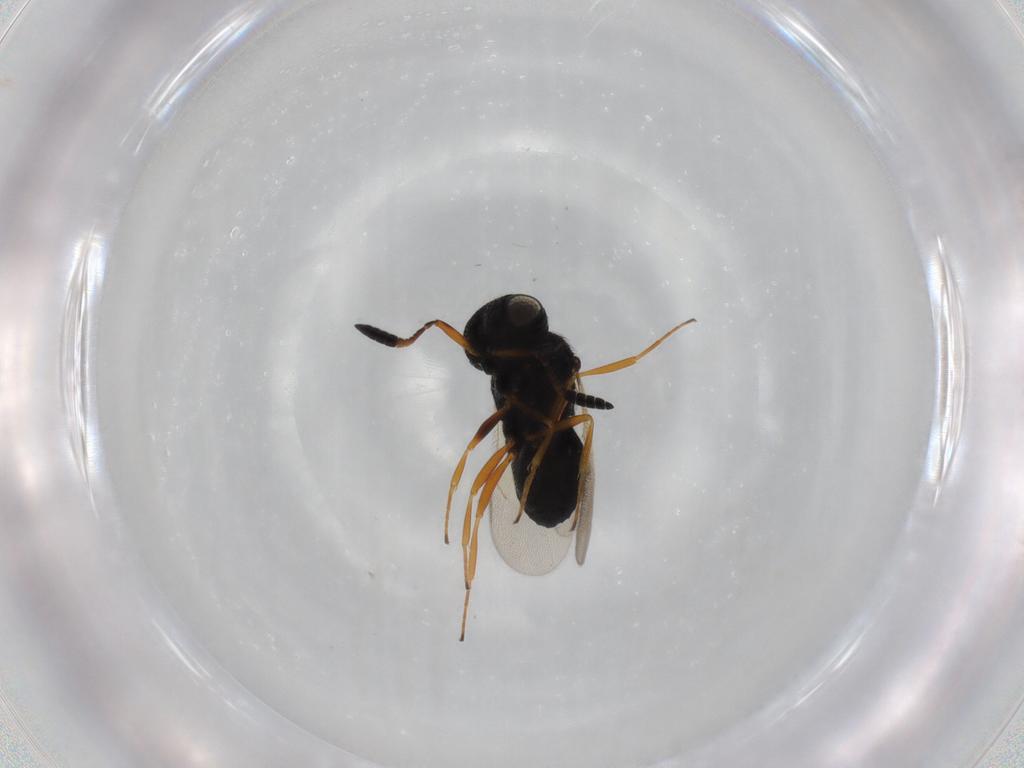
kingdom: Animalia
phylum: Arthropoda
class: Insecta
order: Hymenoptera
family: Scelionidae
